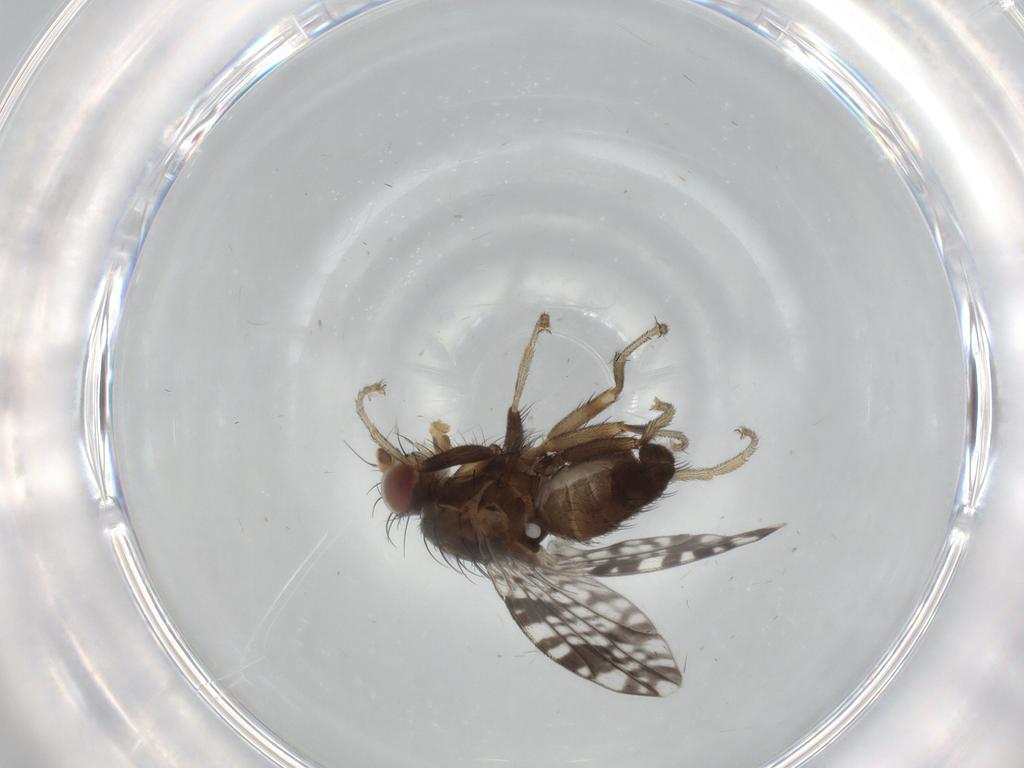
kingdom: Animalia
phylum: Arthropoda
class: Insecta
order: Diptera
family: Tephritidae
